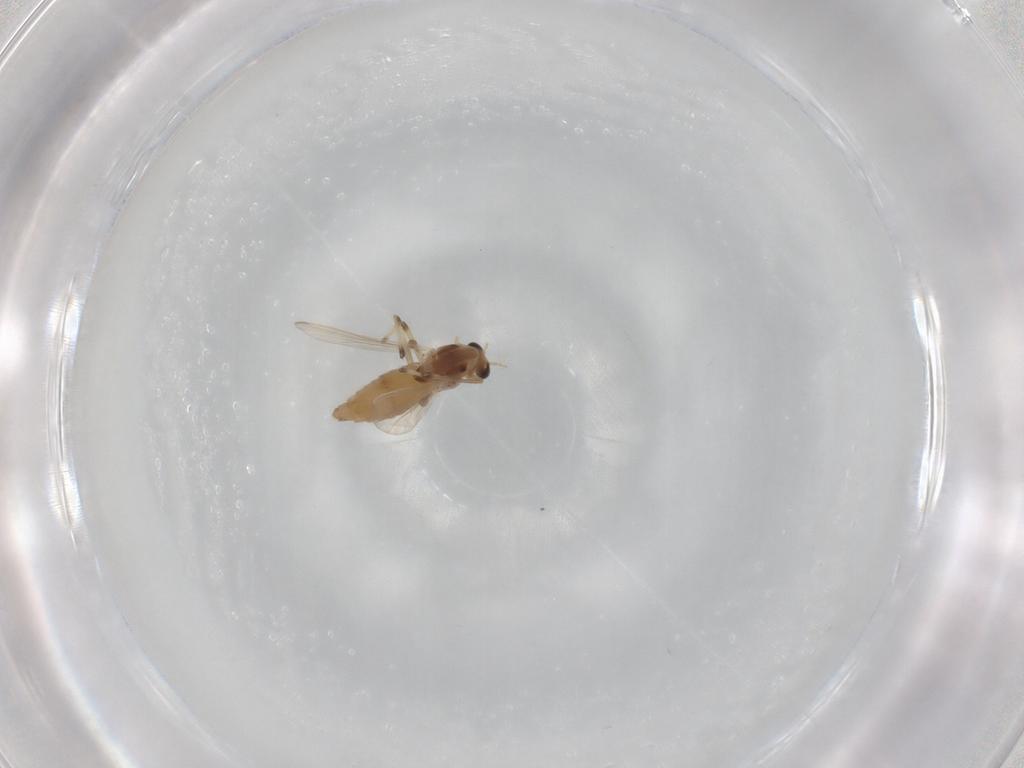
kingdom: Animalia
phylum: Arthropoda
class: Insecta
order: Diptera
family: Chironomidae
